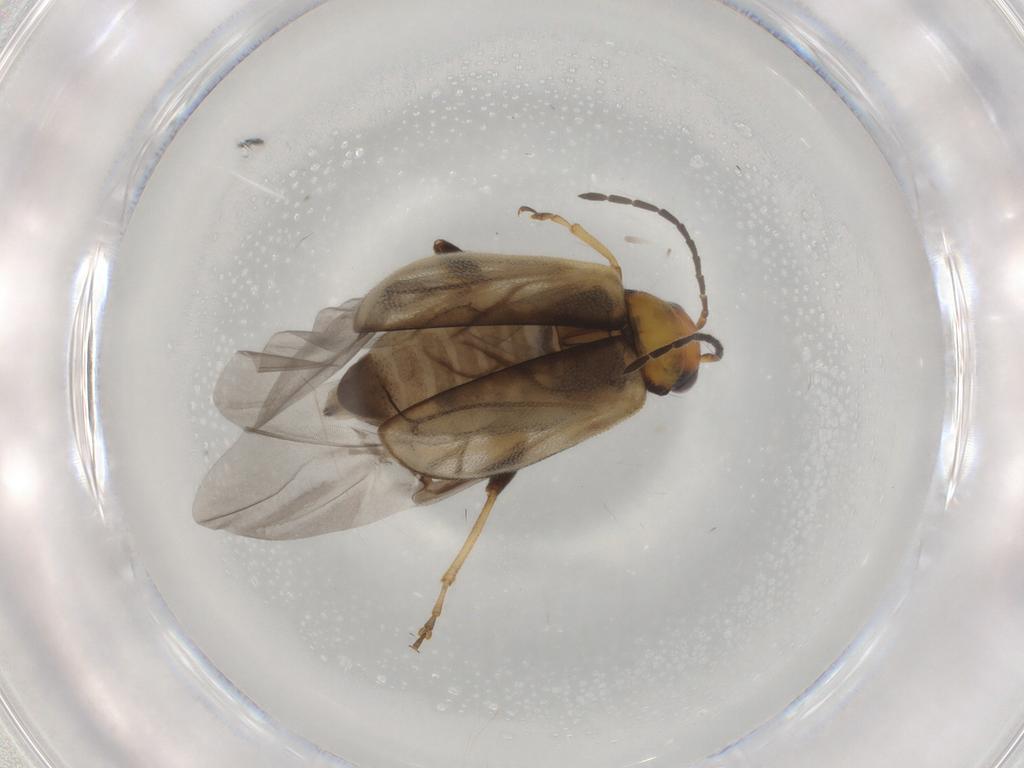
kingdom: Animalia
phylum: Arthropoda
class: Insecta
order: Coleoptera
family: Chrysomelidae
